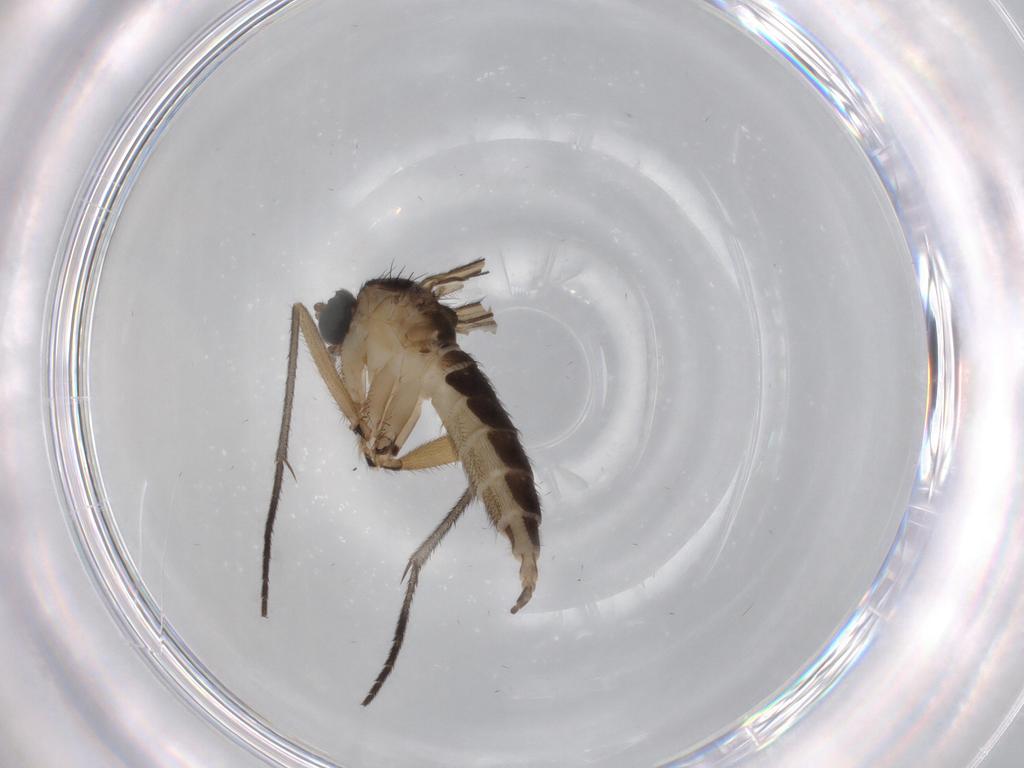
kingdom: Animalia
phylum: Arthropoda
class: Insecta
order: Diptera
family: Sciaridae
